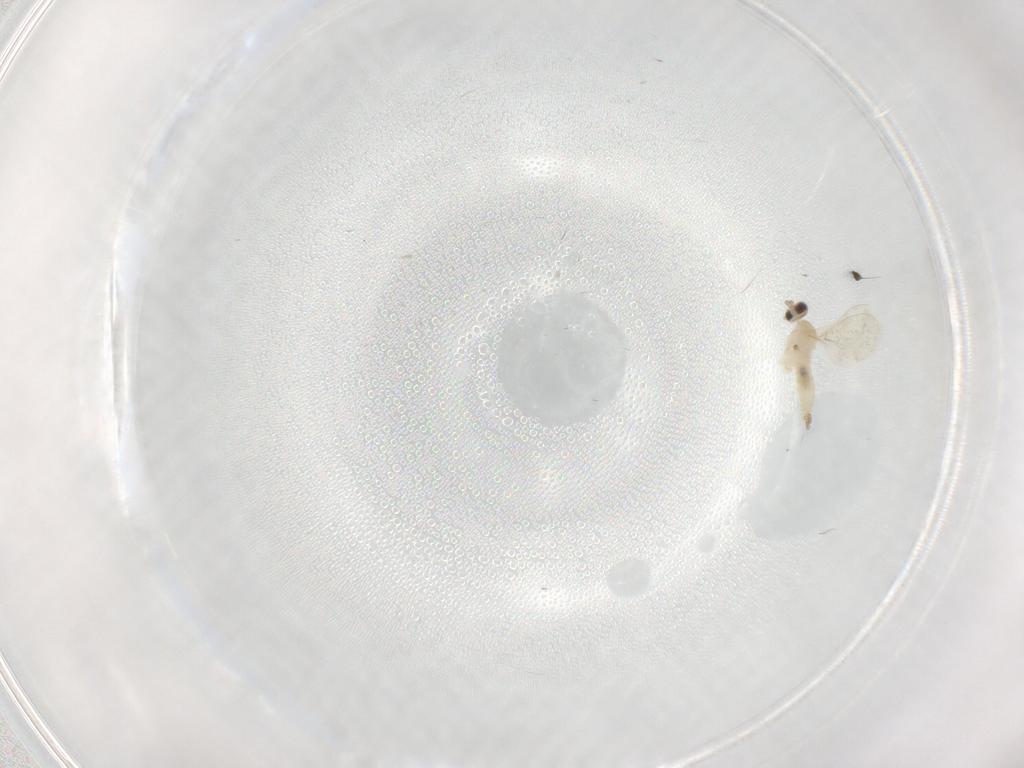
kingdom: Animalia
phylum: Arthropoda
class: Insecta
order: Diptera
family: Cecidomyiidae
